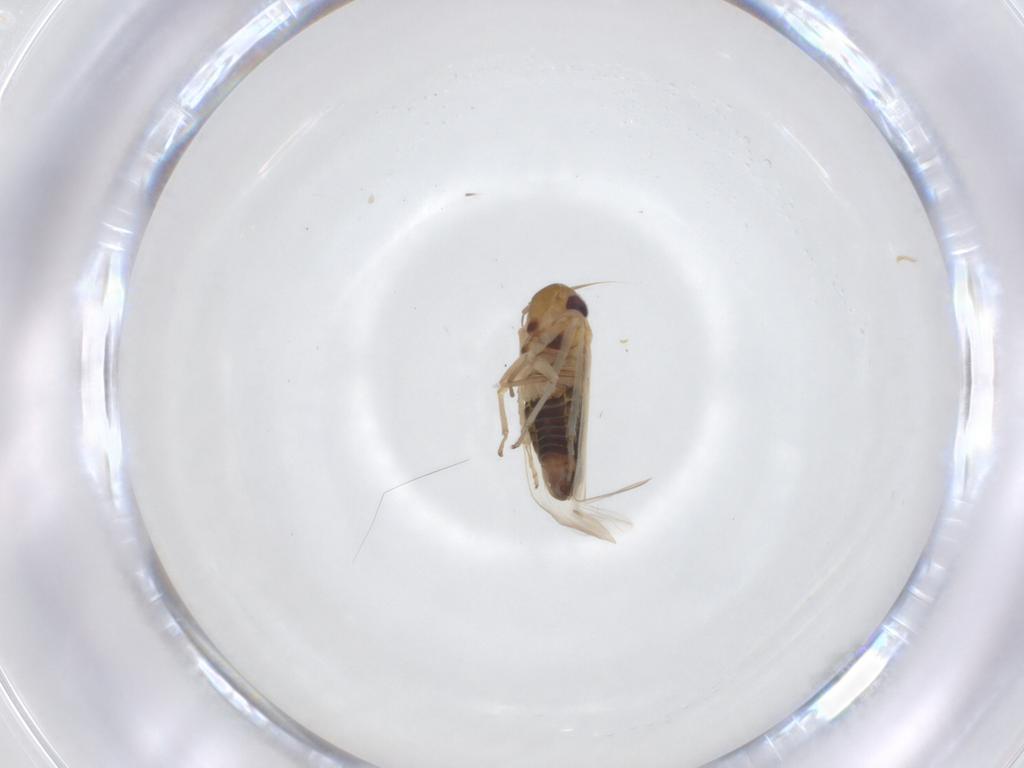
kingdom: Animalia
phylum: Arthropoda
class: Insecta
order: Hemiptera
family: Cicadellidae
